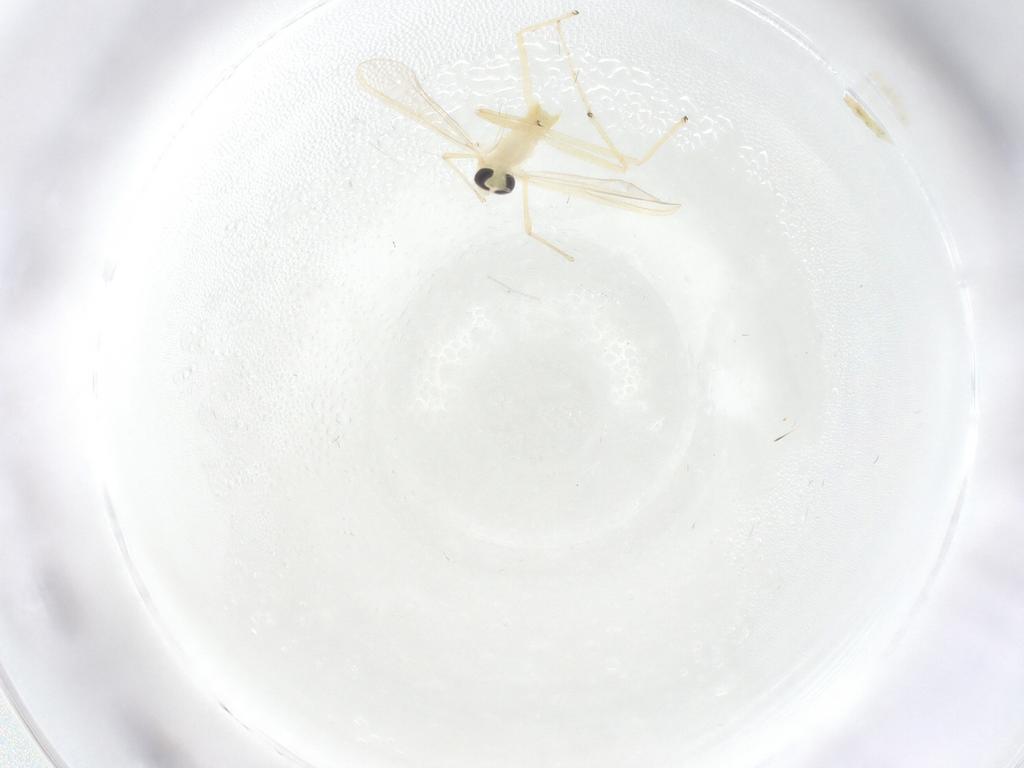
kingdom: Animalia
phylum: Arthropoda
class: Insecta
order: Diptera
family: Chironomidae
